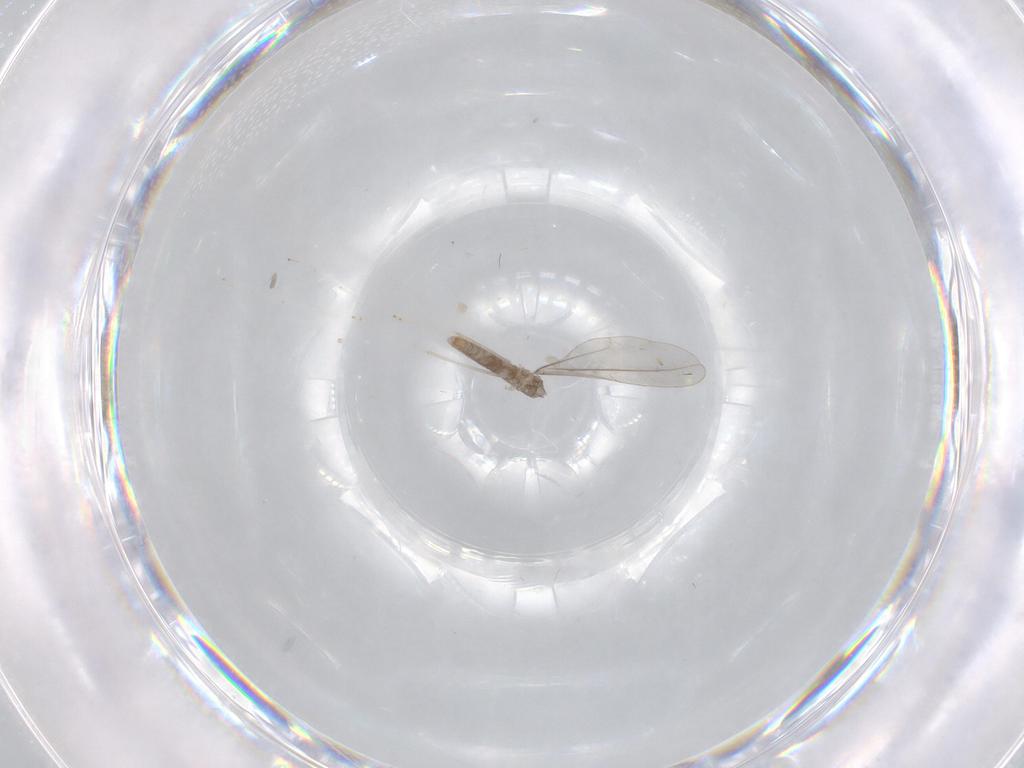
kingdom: Animalia
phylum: Arthropoda
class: Insecta
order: Diptera
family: Cecidomyiidae
